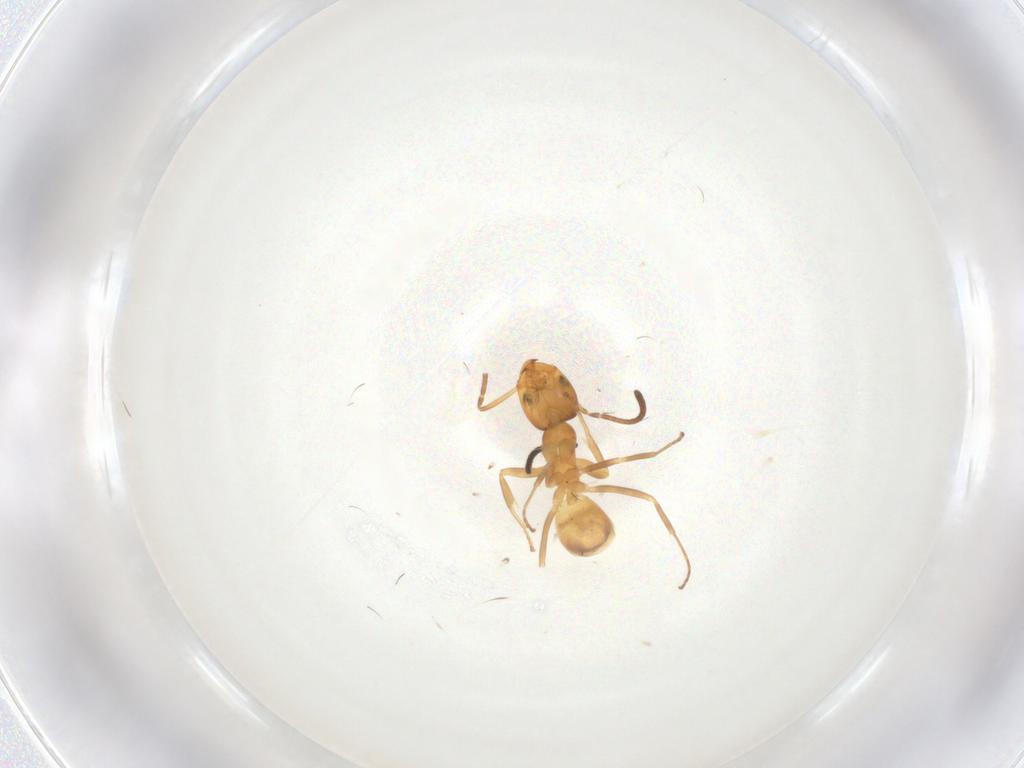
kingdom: Animalia
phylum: Arthropoda
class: Insecta
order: Hymenoptera
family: Formicidae
